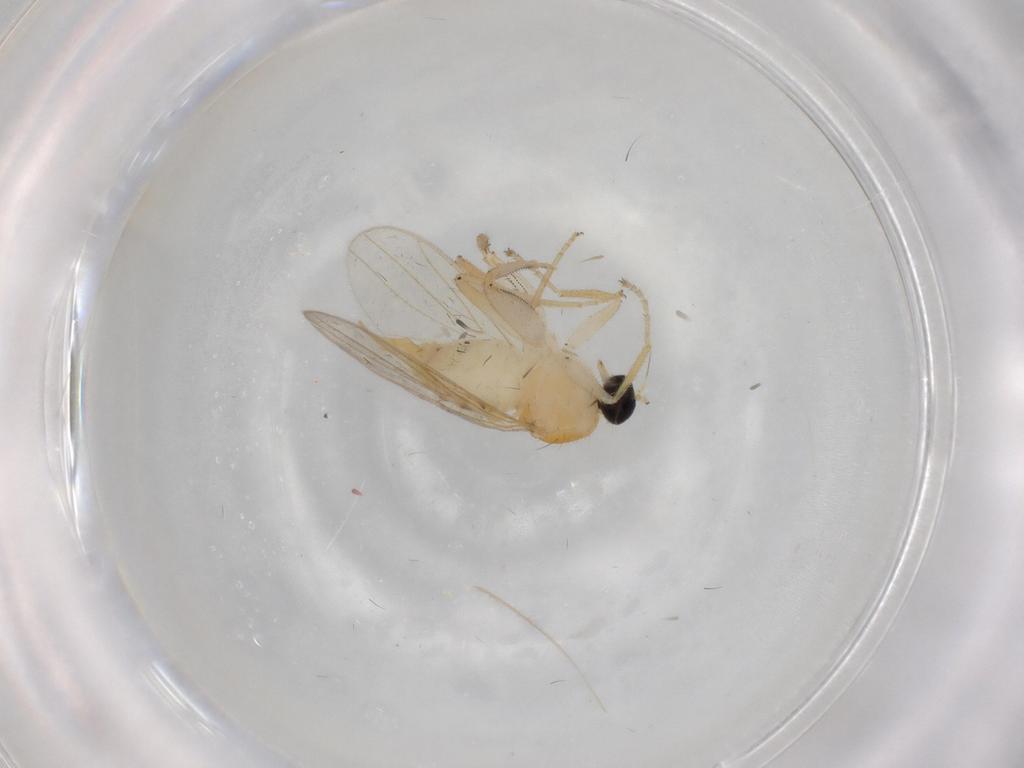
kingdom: Animalia
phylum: Arthropoda
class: Insecta
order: Diptera
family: Hybotidae
